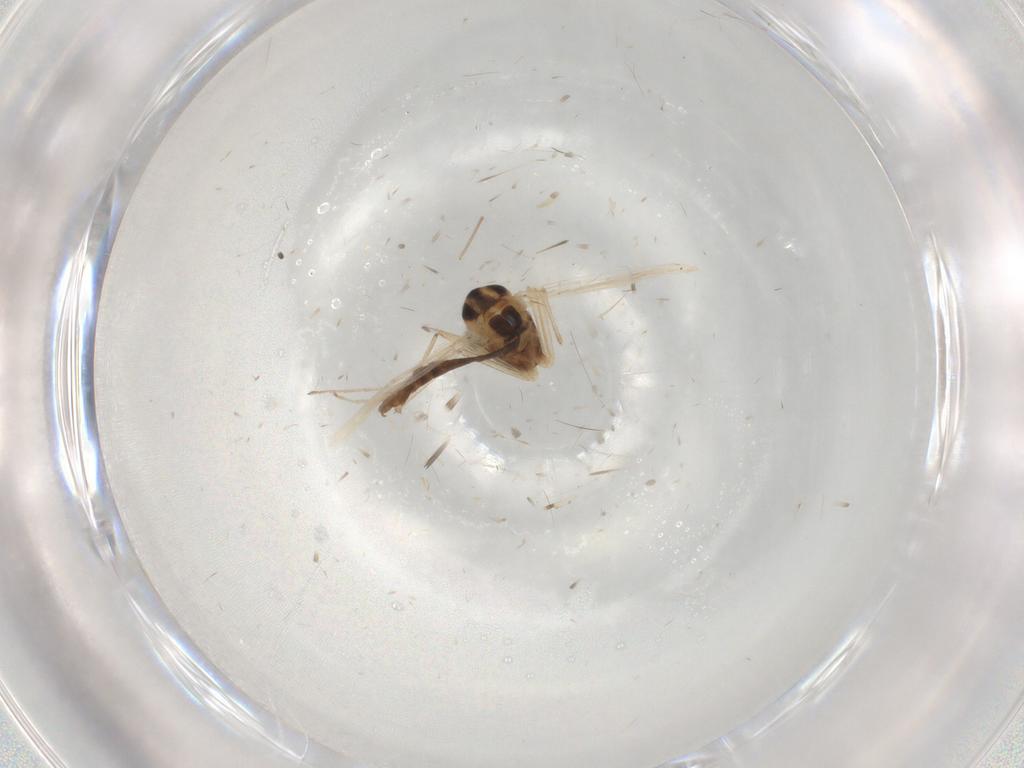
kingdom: Animalia
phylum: Arthropoda
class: Insecta
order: Diptera
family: Chironomidae
